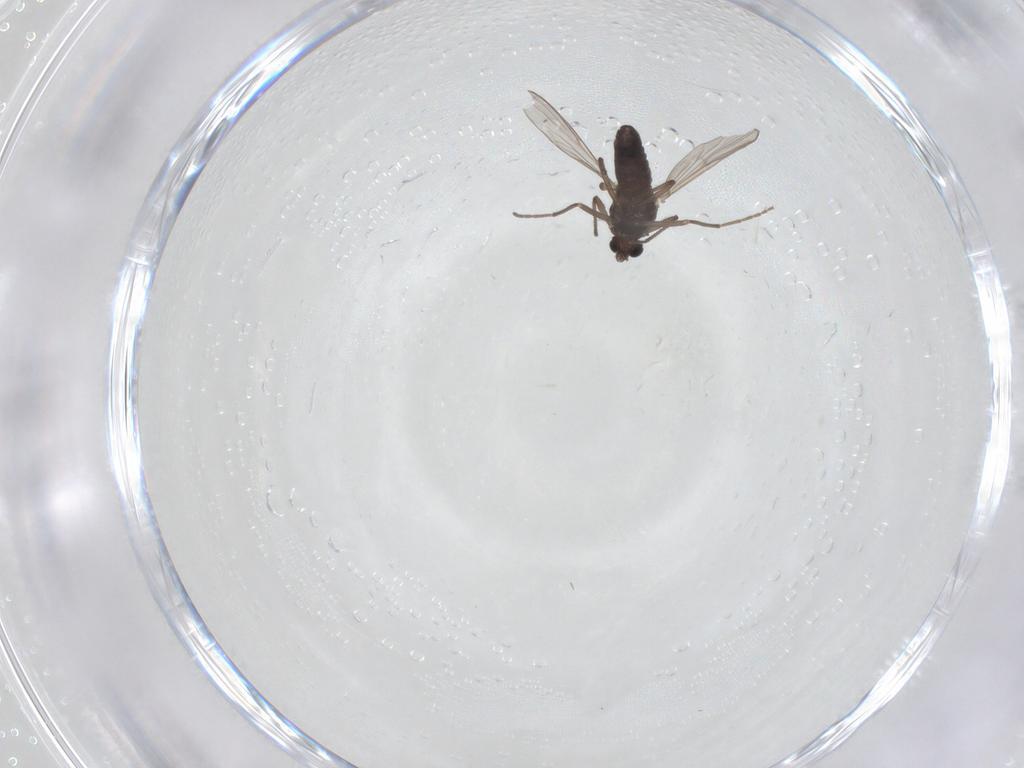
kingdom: Animalia
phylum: Arthropoda
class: Insecta
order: Diptera
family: Chironomidae
